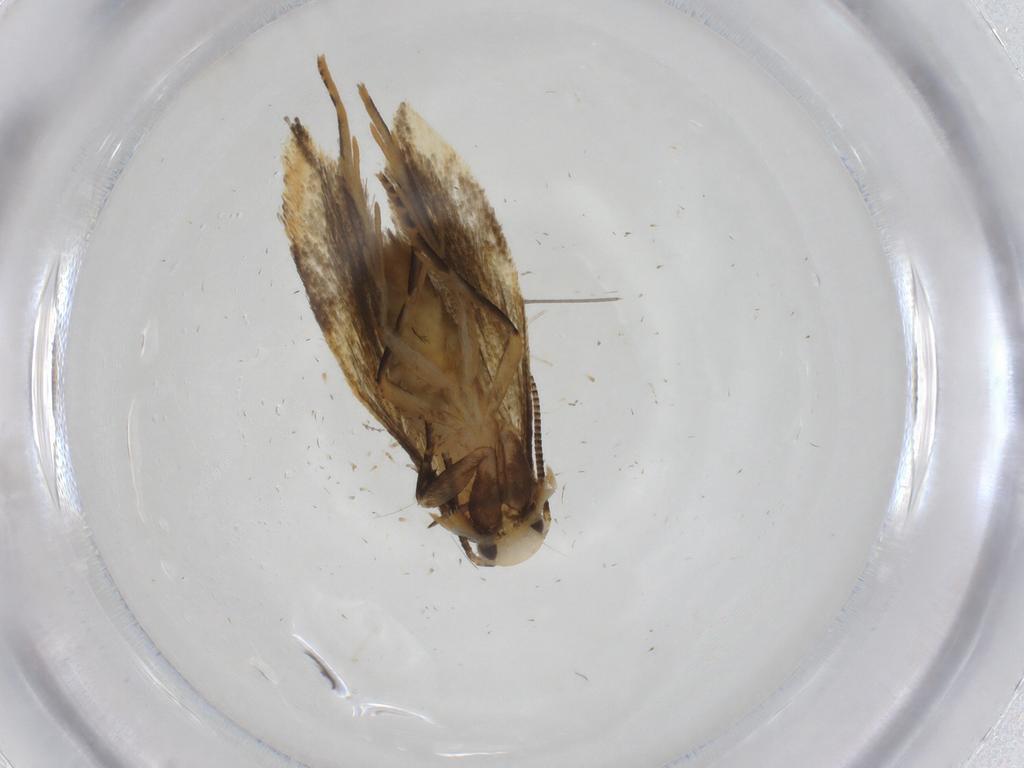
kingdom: Animalia
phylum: Arthropoda
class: Insecta
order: Lepidoptera
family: Pieridae
